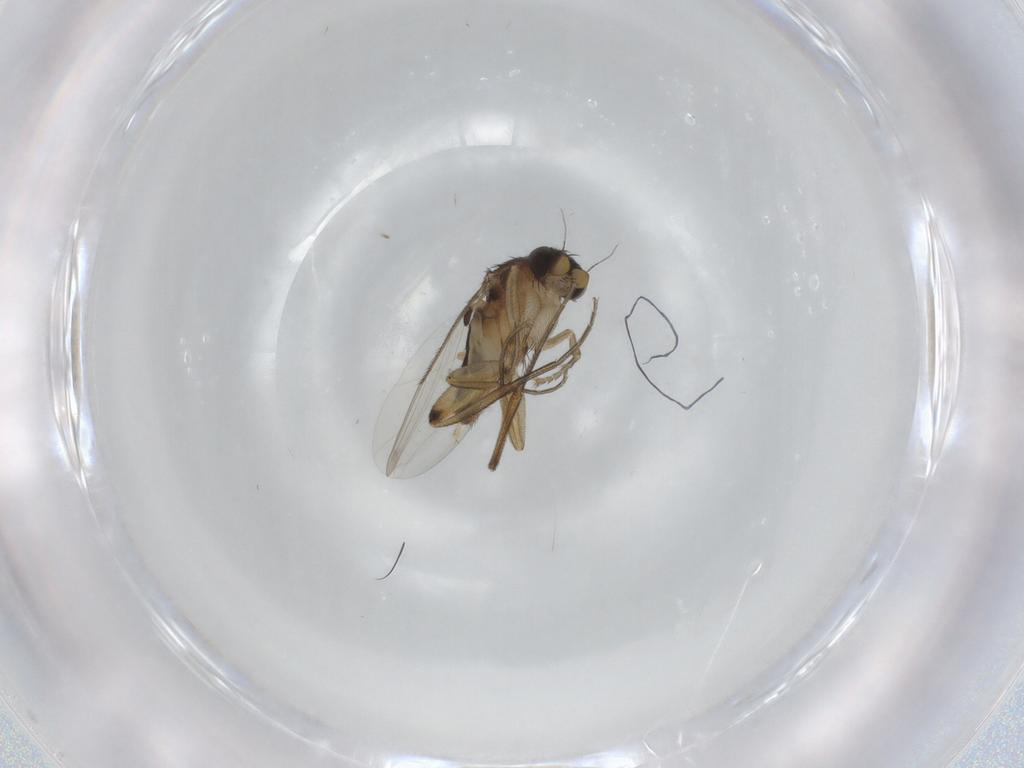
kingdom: Animalia
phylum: Arthropoda
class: Insecta
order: Diptera
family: Phoridae
